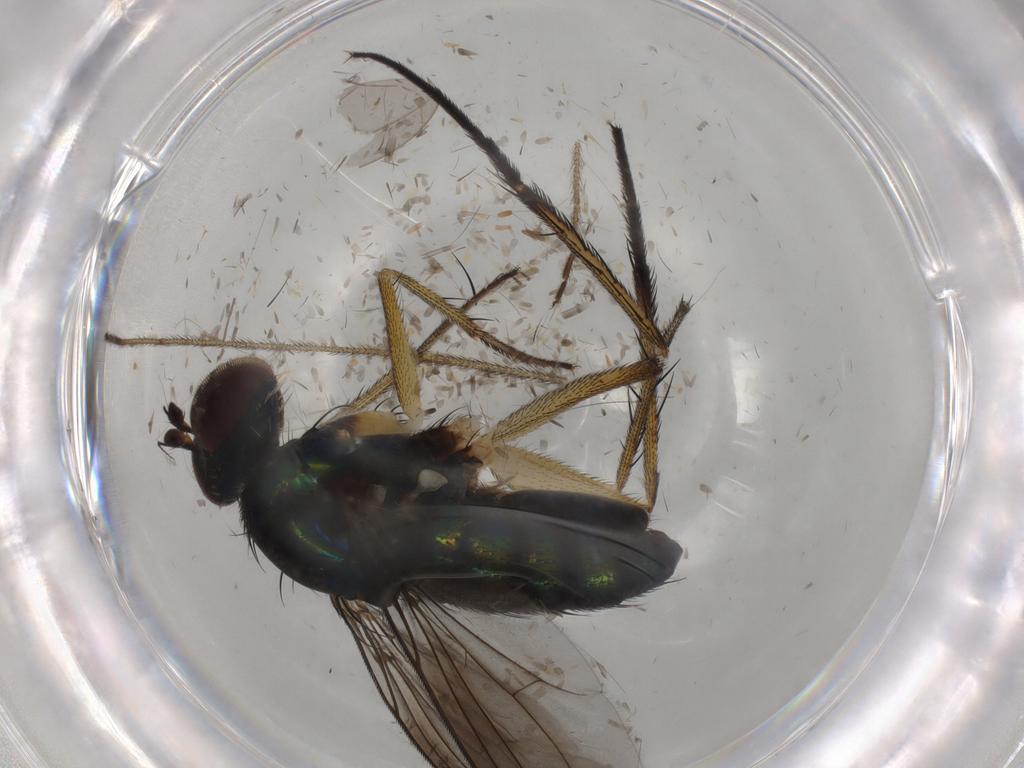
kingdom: Animalia
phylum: Arthropoda
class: Insecta
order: Diptera
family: Dolichopodidae
